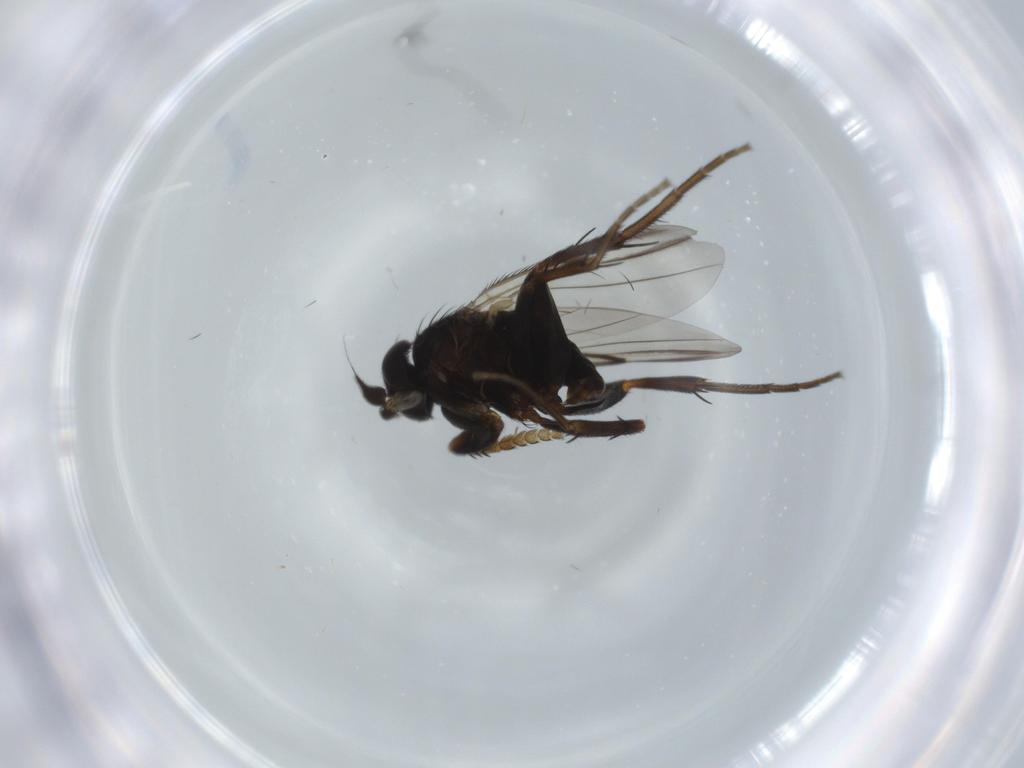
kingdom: Animalia
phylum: Arthropoda
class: Insecta
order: Diptera
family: Phoridae
